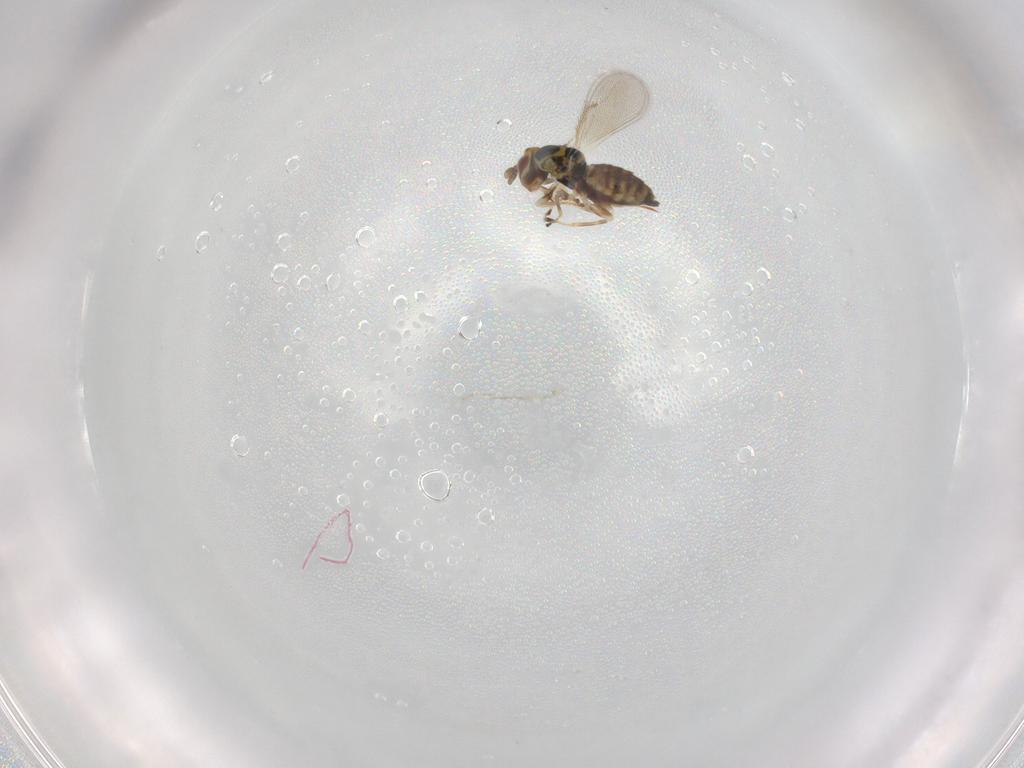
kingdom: Animalia
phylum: Arthropoda
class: Insecta
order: Hymenoptera
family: Eulophidae
